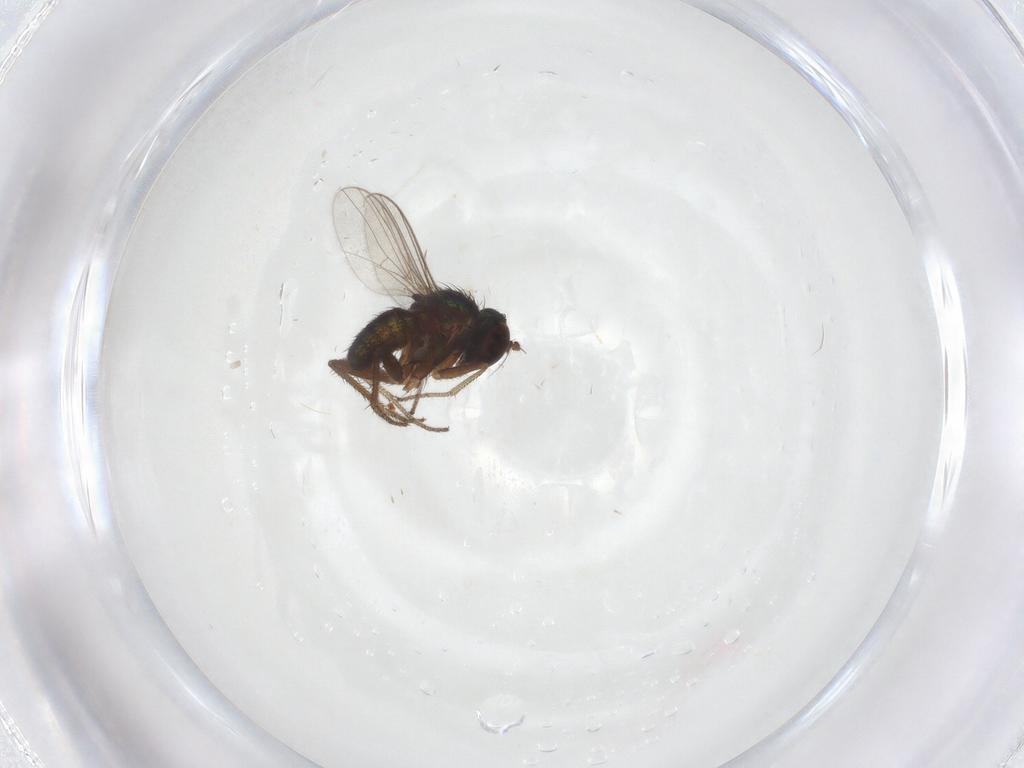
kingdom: Animalia
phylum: Arthropoda
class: Insecta
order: Diptera
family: Dolichopodidae
